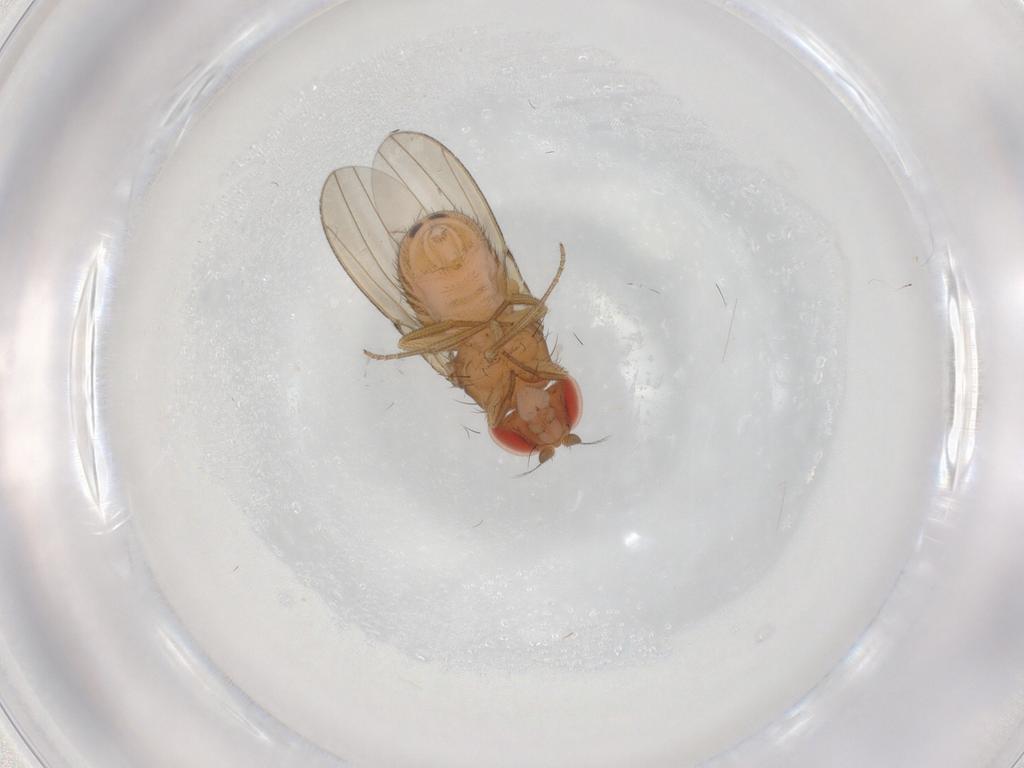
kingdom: Animalia
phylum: Arthropoda
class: Insecta
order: Diptera
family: Drosophilidae
